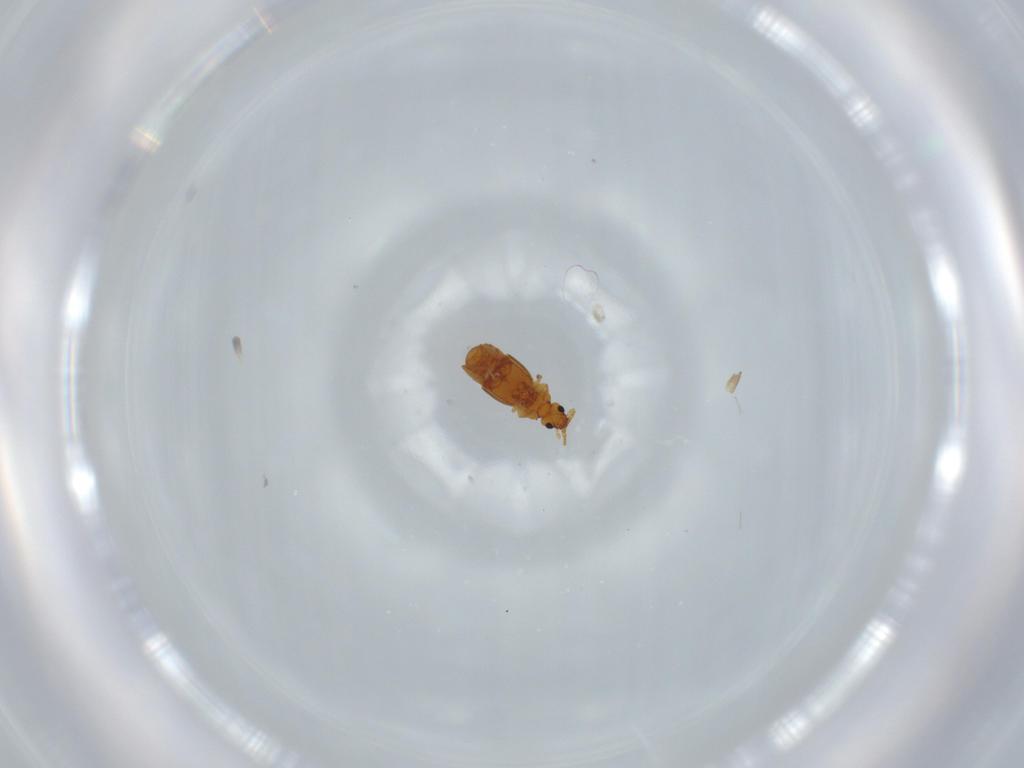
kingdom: Animalia
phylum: Arthropoda
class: Insecta
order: Coleoptera
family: Staphylinidae
